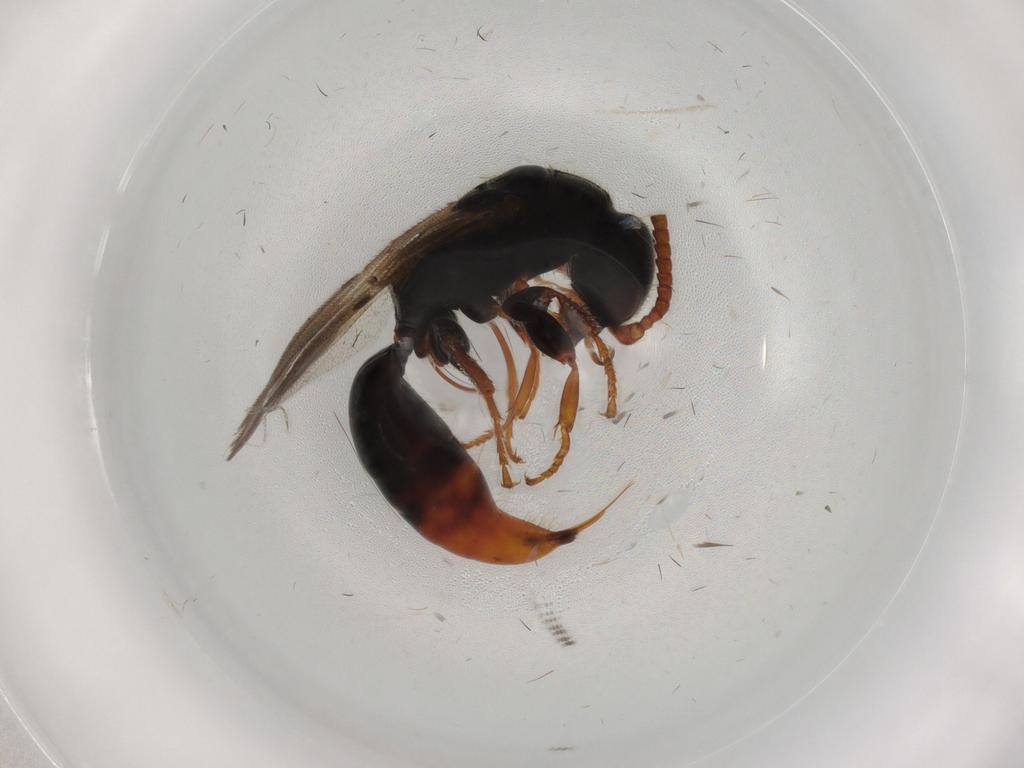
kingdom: Animalia
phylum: Arthropoda
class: Insecta
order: Hymenoptera
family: Bethylidae
